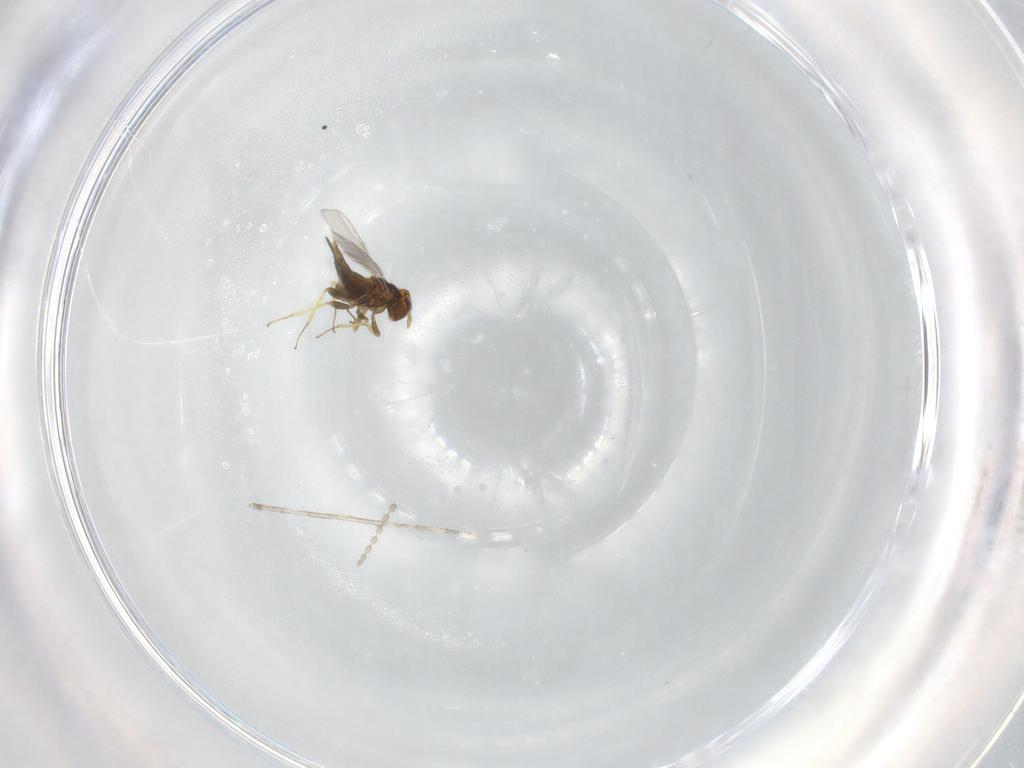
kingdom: Animalia
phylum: Arthropoda
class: Insecta
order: Hymenoptera
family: Aphelinidae
